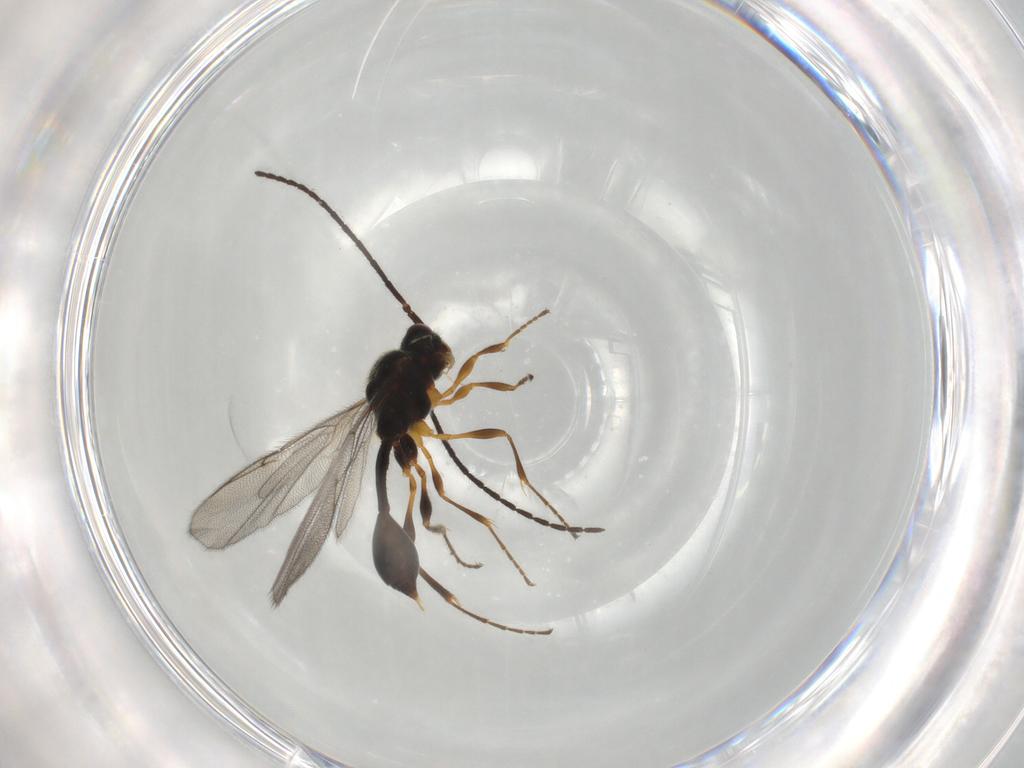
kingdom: Animalia
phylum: Arthropoda
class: Insecta
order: Hymenoptera
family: Diapriidae
